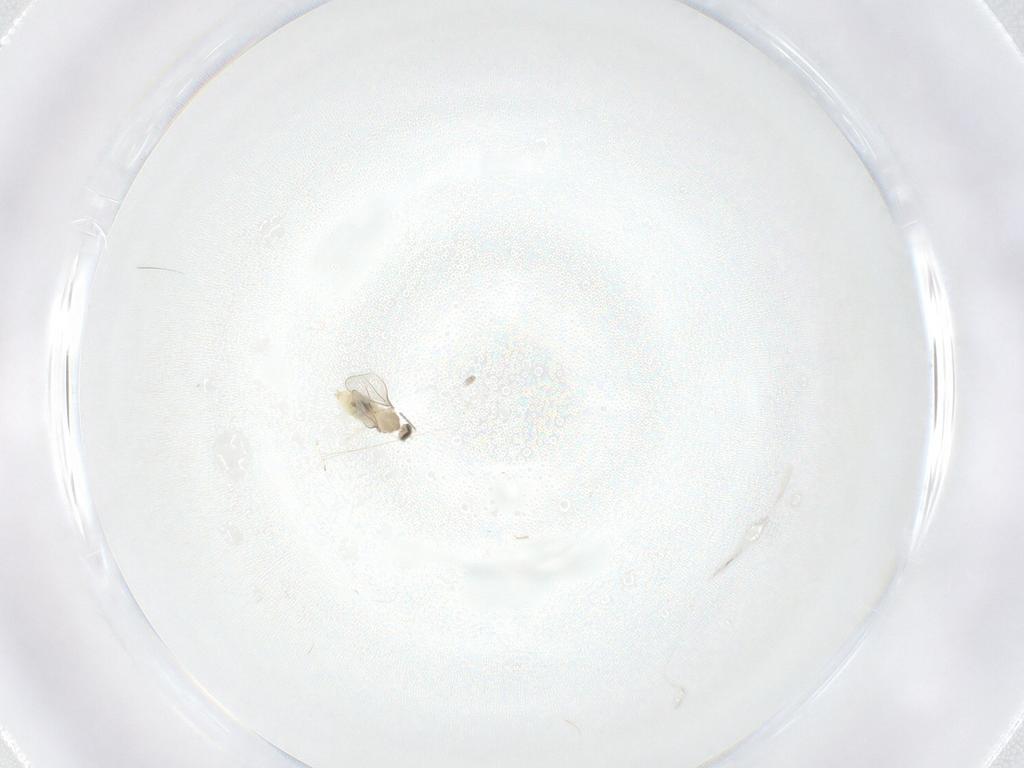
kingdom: Animalia
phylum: Arthropoda
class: Insecta
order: Diptera
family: Cecidomyiidae
